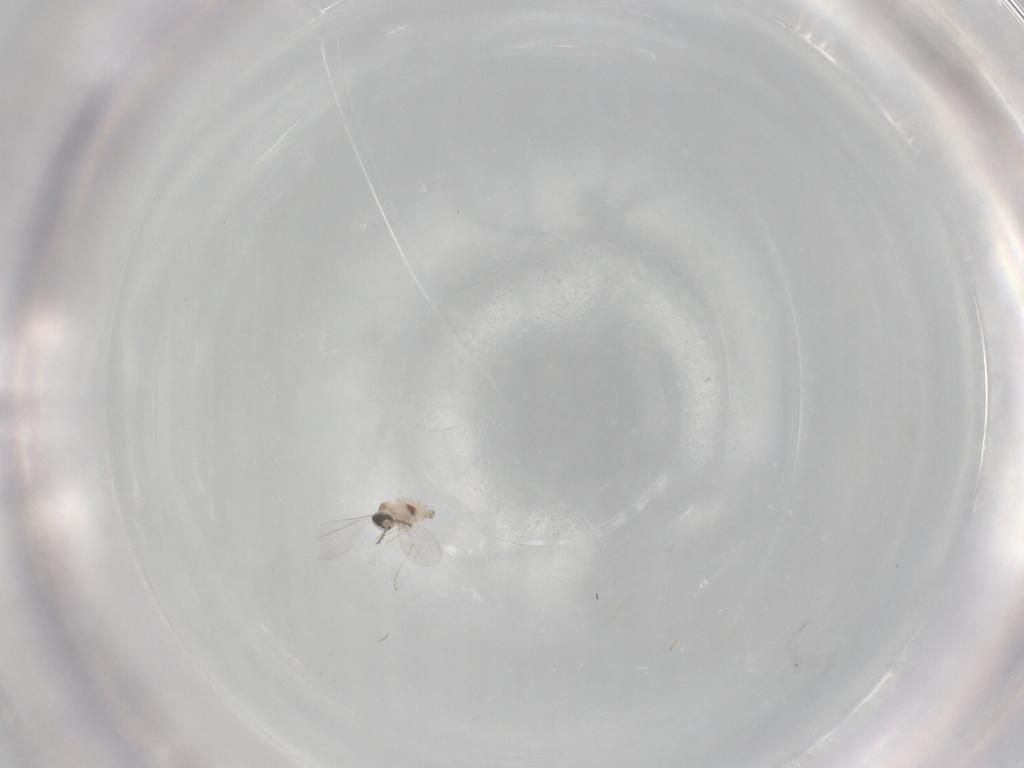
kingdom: Animalia
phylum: Arthropoda
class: Insecta
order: Diptera
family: Cecidomyiidae
